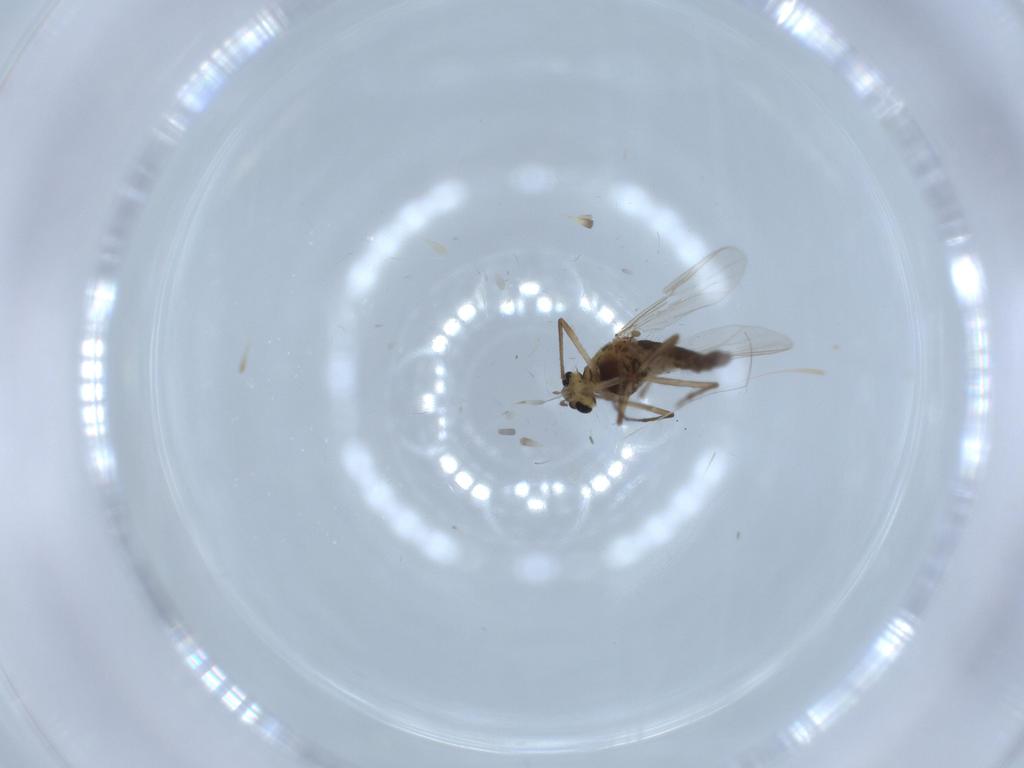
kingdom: Animalia
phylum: Arthropoda
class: Insecta
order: Diptera
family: Chironomidae
